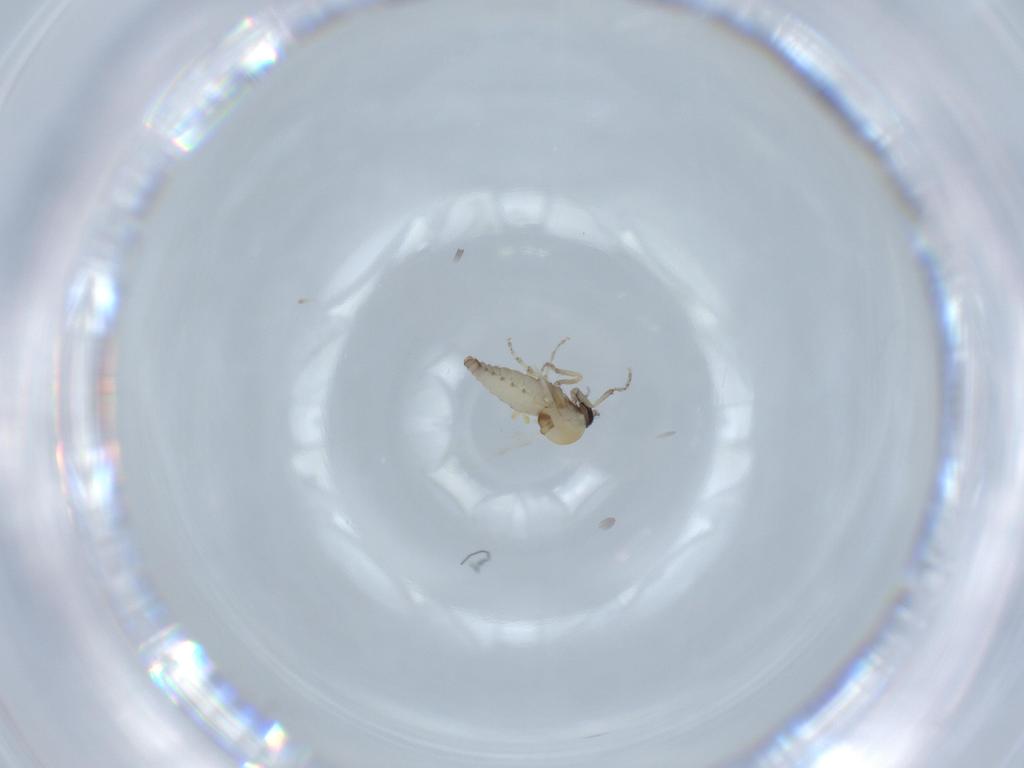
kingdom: Animalia
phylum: Arthropoda
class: Insecta
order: Diptera
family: Ceratopogonidae
